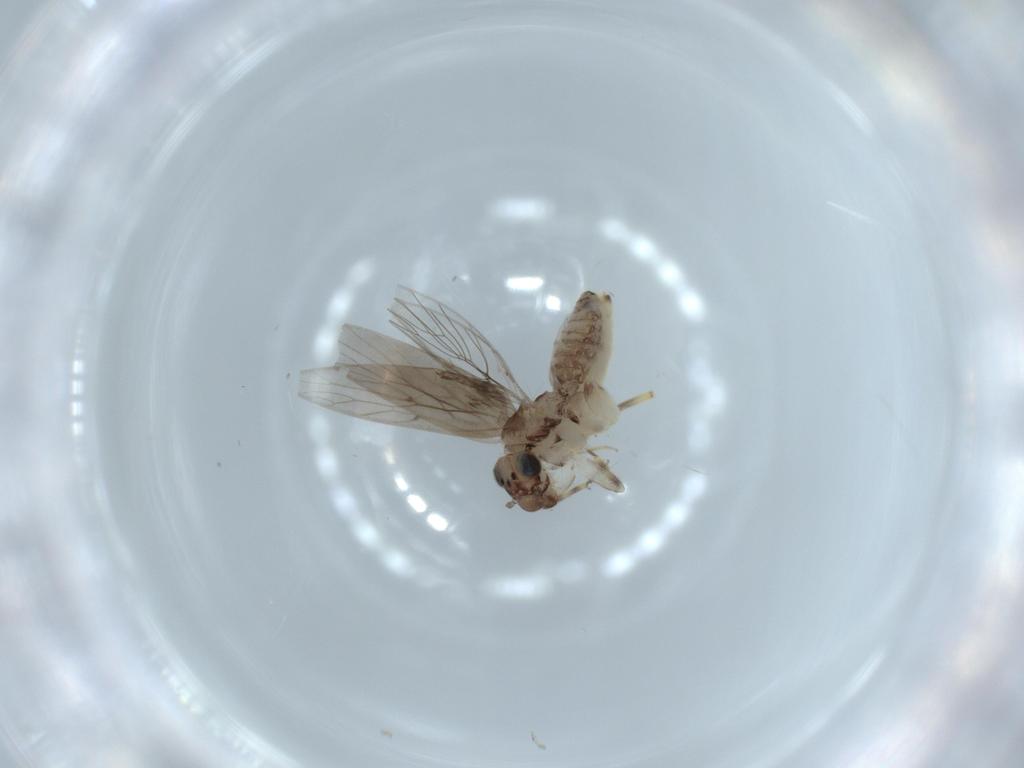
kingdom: Animalia
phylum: Arthropoda
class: Insecta
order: Psocodea
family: Lepidopsocidae
